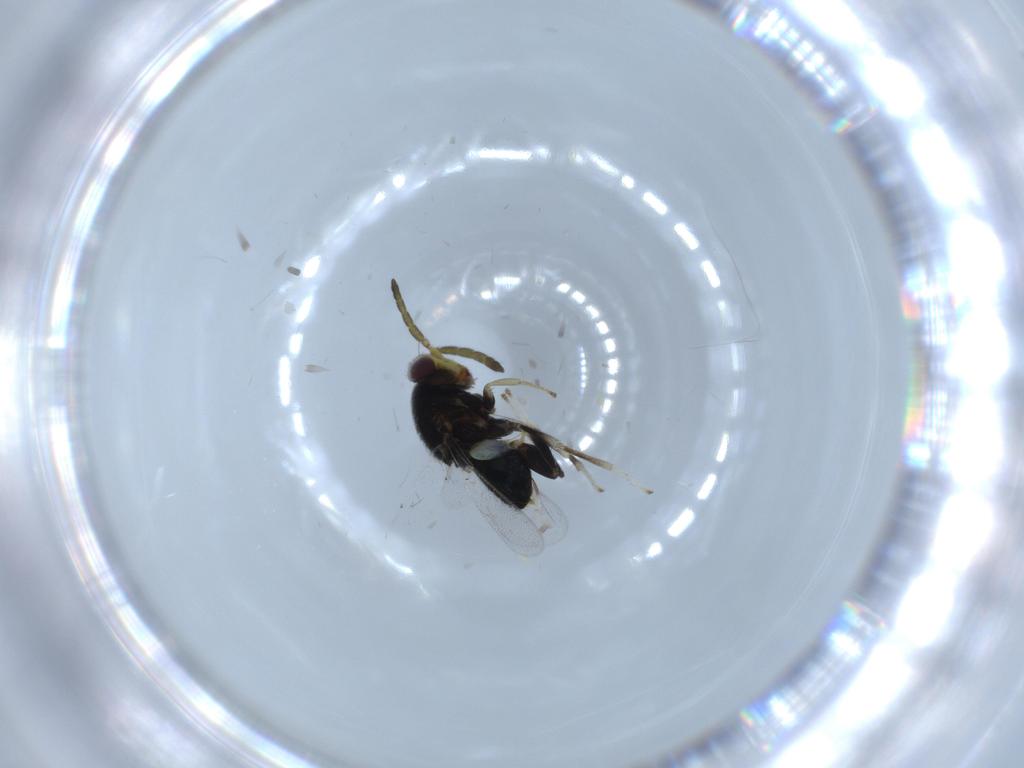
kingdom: Animalia
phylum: Arthropoda
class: Insecta
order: Hymenoptera
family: Aphelinidae
